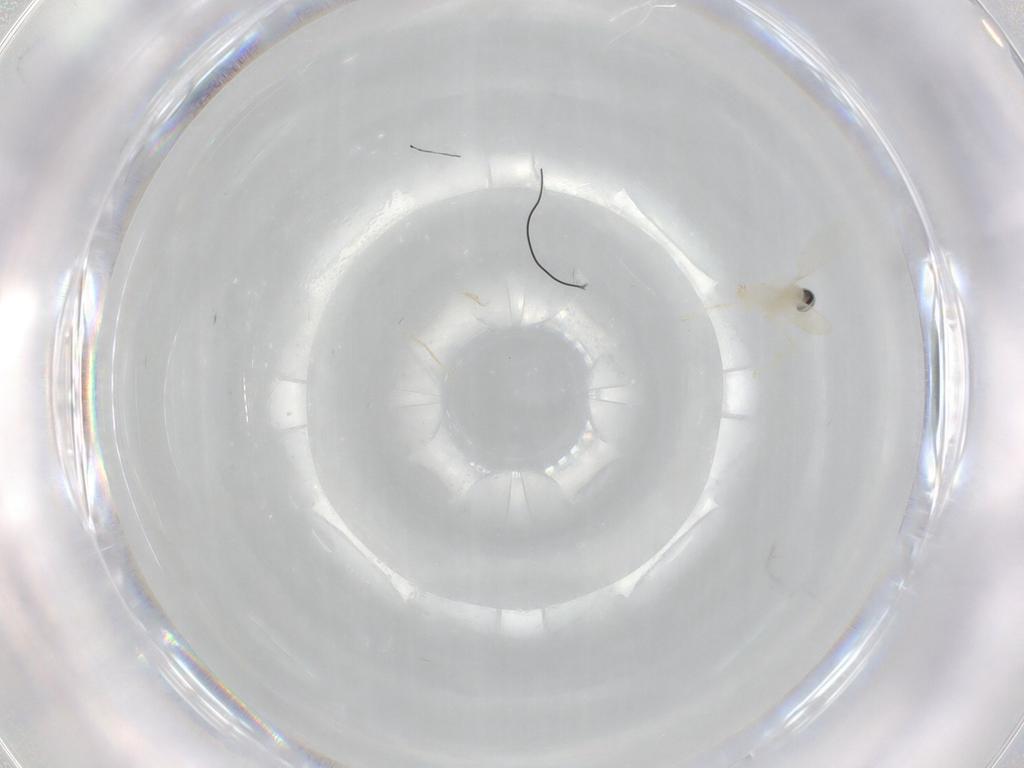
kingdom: Animalia
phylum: Arthropoda
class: Insecta
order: Diptera
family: Cecidomyiidae
